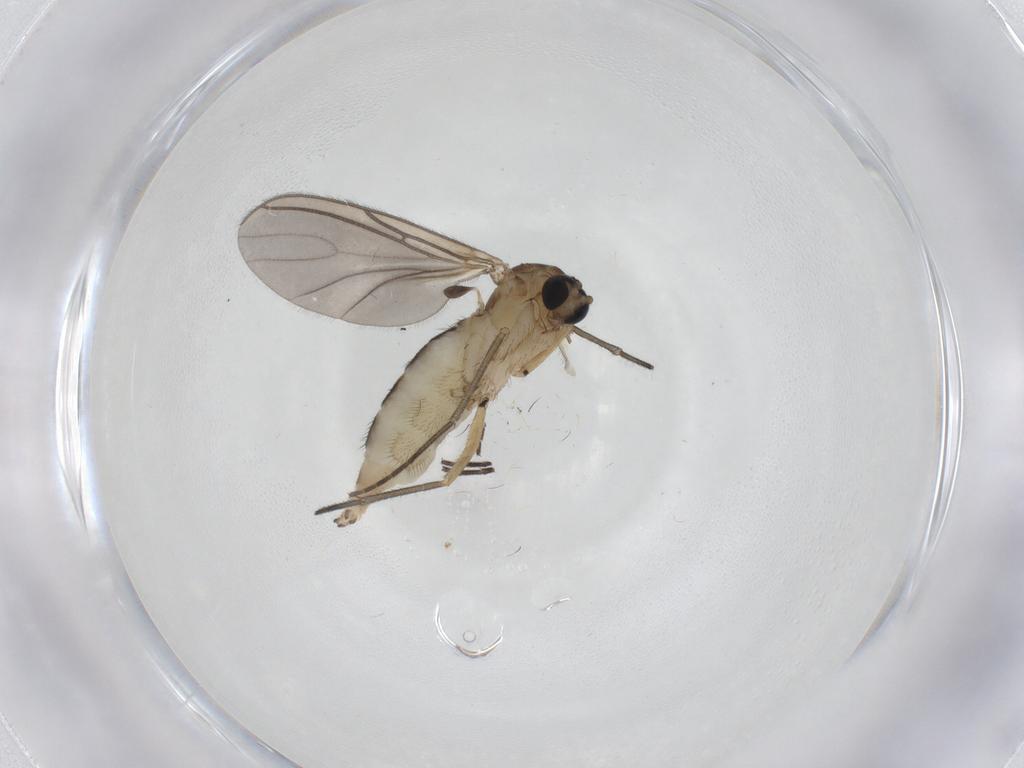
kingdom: Animalia
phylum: Arthropoda
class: Insecta
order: Diptera
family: Sciaridae
